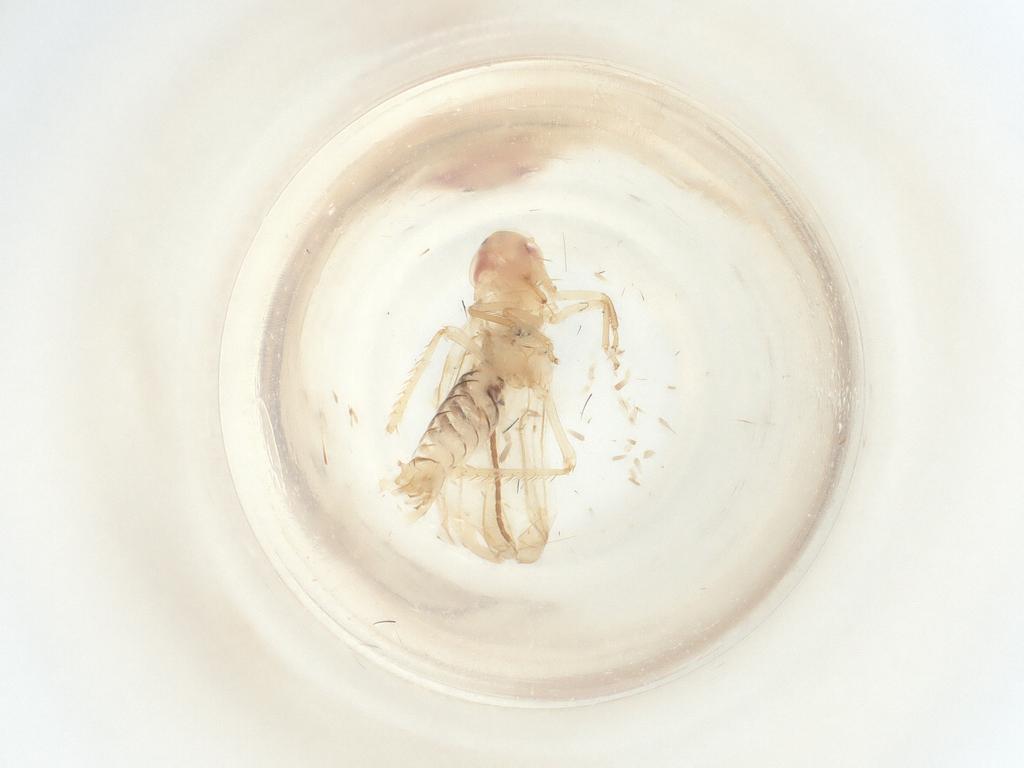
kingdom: Animalia
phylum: Arthropoda
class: Insecta
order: Hemiptera
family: Cicadellidae
